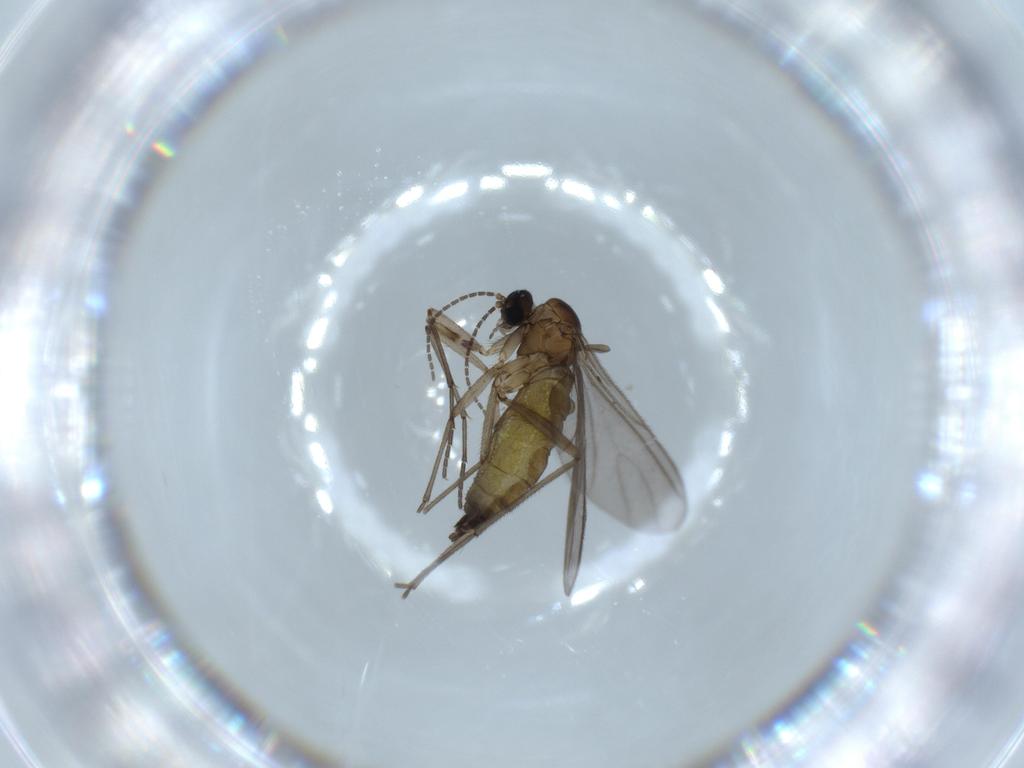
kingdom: Animalia
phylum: Arthropoda
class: Insecta
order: Diptera
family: Sciaridae
